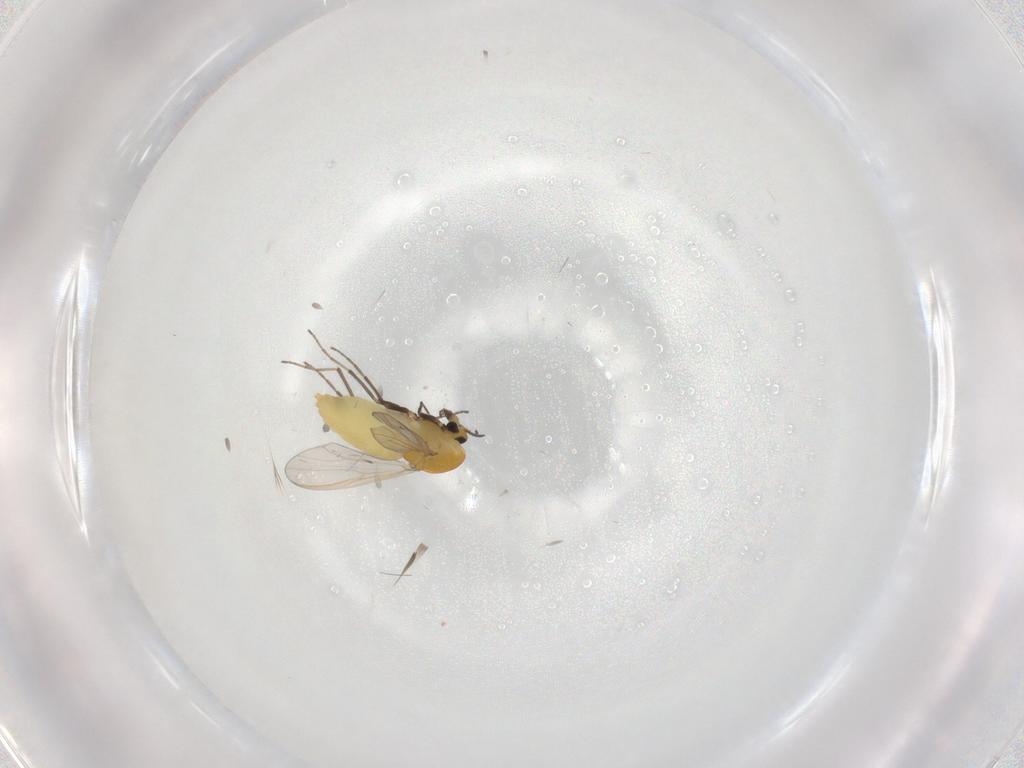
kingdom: Animalia
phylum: Arthropoda
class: Insecta
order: Diptera
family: Chironomidae
